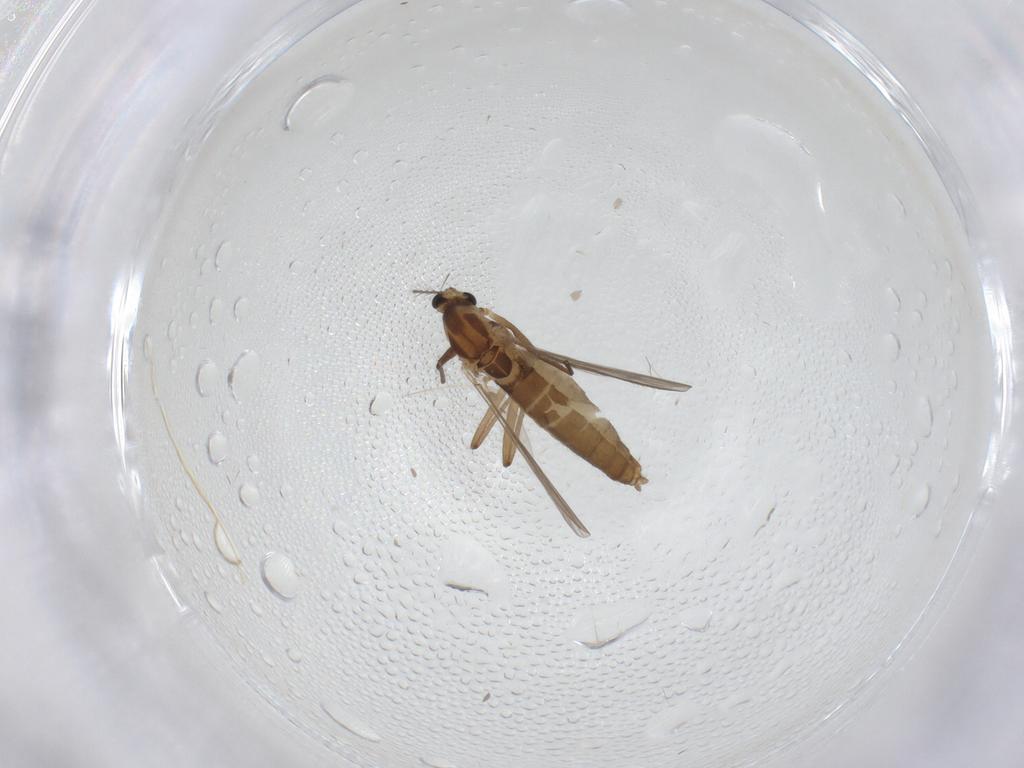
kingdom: Animalia
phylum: Arthropoda
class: Insecta
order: Diptera
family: Chironomidae
